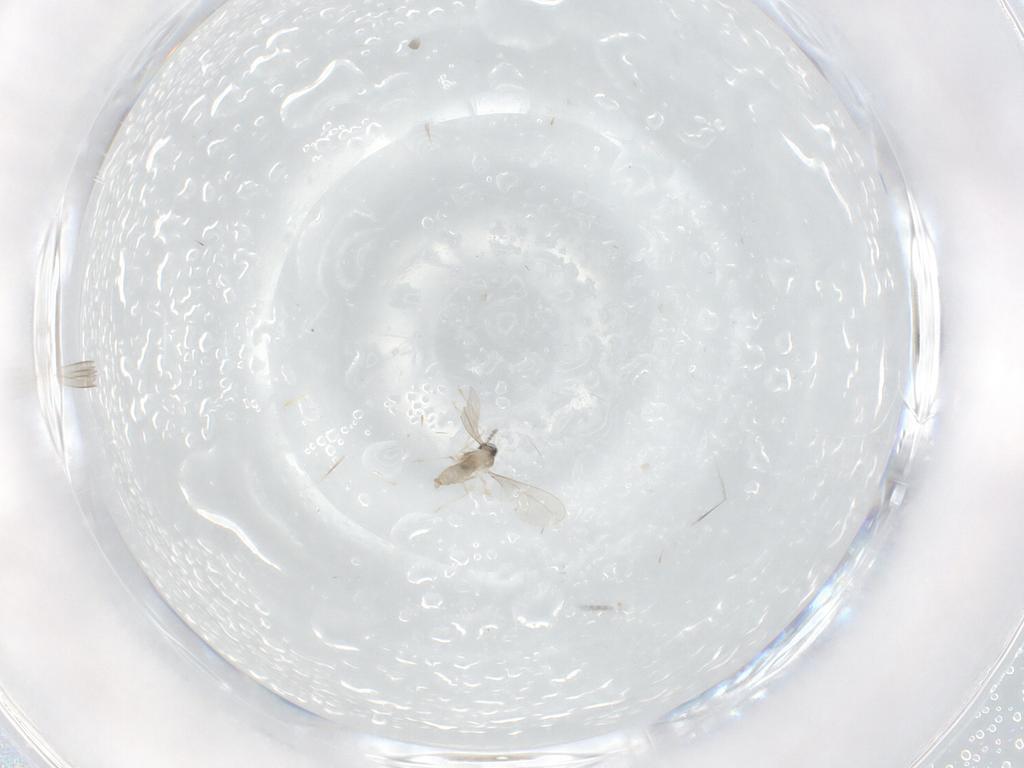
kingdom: Animalia
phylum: Arthropoda
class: Insecta
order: Diptera
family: Cecidomyiidae
